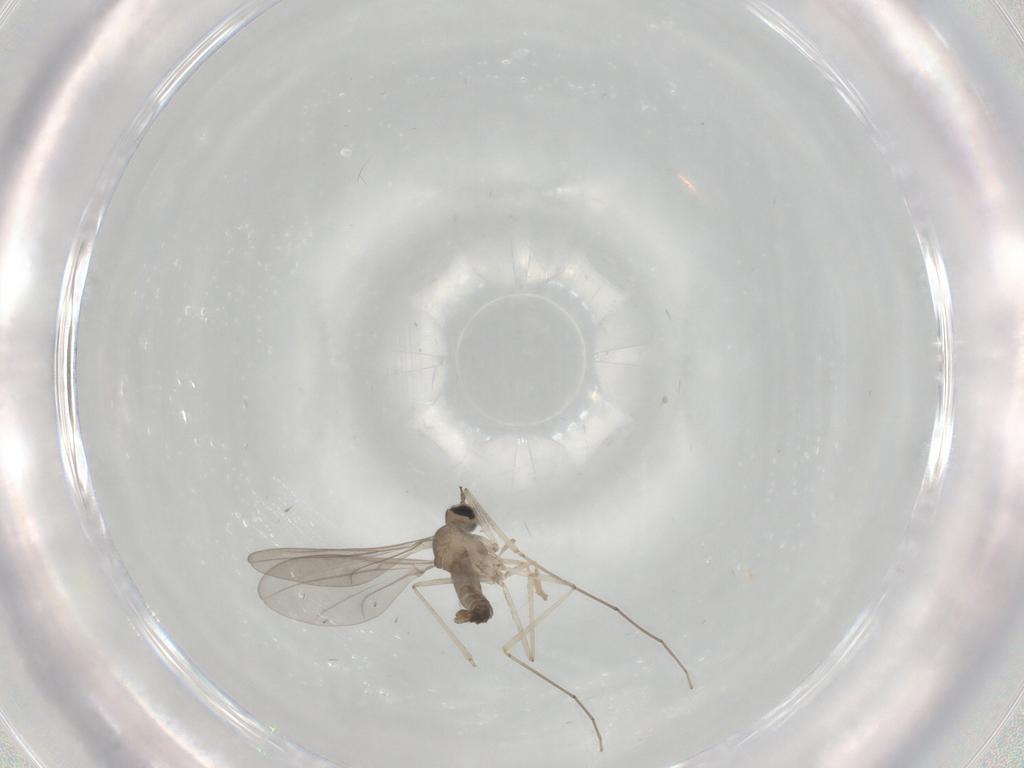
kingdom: Animalia
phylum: Arthropoda
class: Insecta
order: Diptera
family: Cecidomyiidae
